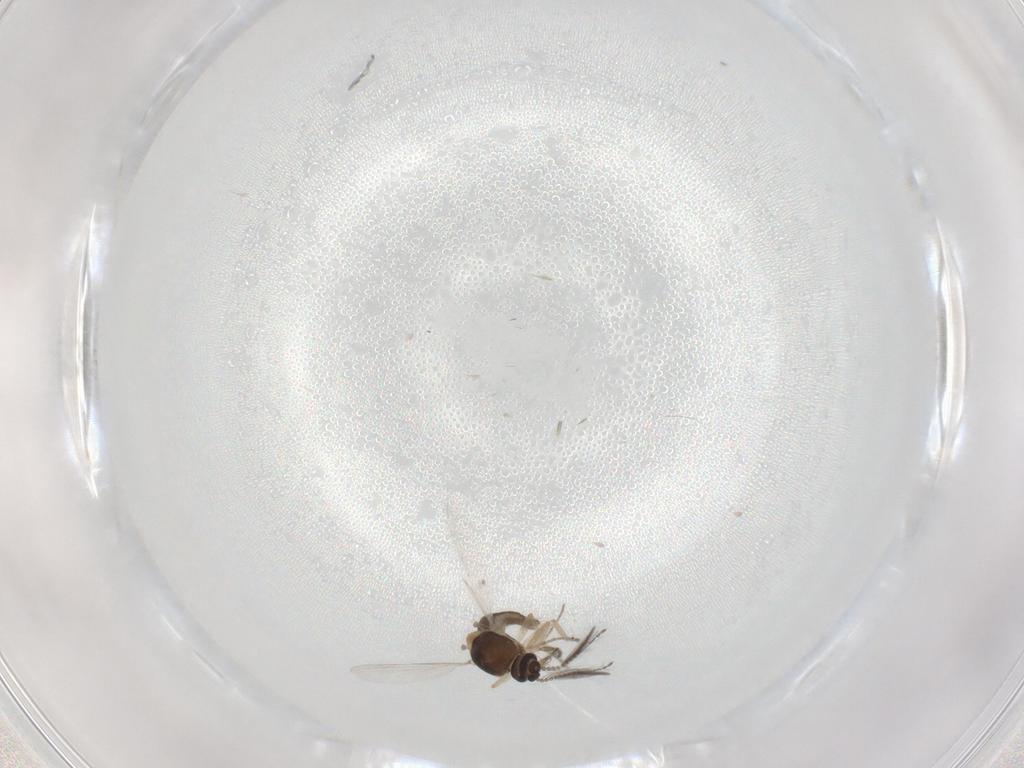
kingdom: Animalia
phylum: Arthropoda
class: Insecta
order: Diptera
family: Ceratopogonidae
